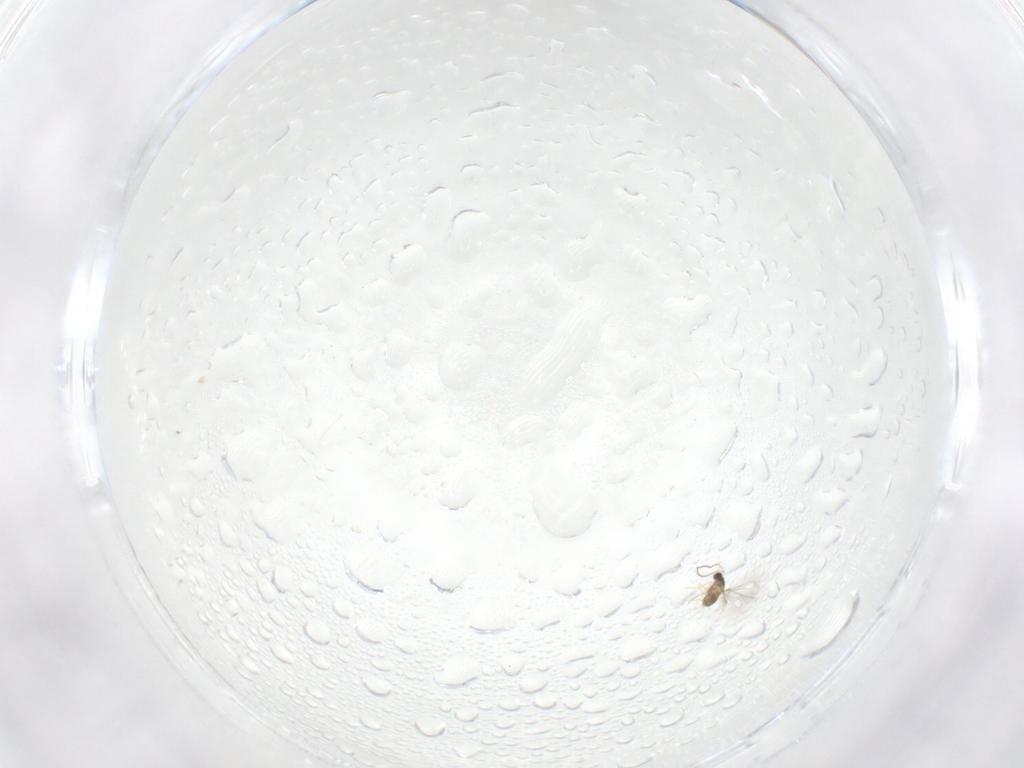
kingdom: Animalia
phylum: Arthropoda
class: Insecta
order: Hymenoptera
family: Mymaridae
